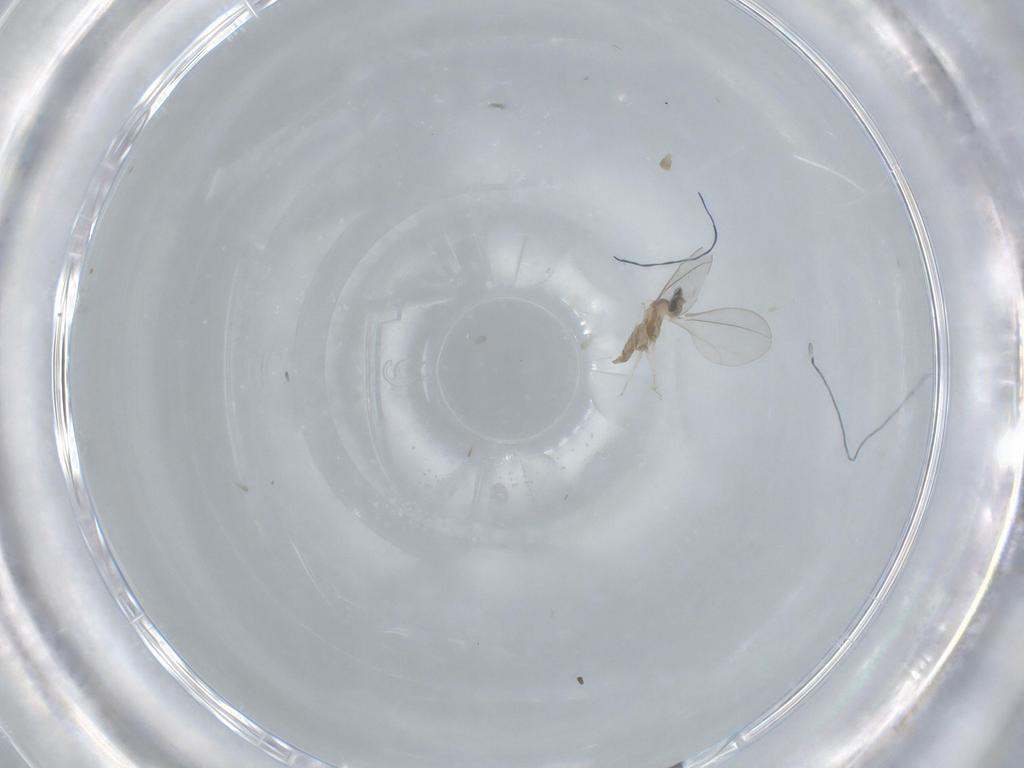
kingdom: Animalia
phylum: Arthropoda
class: Insecta
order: Diptera
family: Cecidomyiidae
